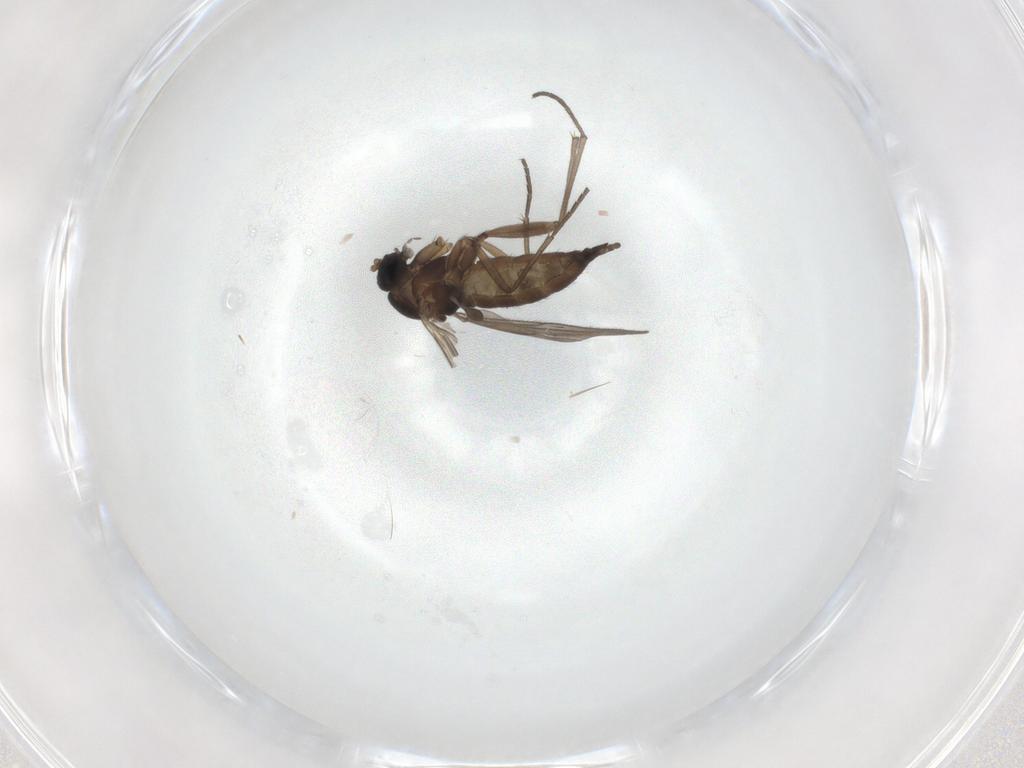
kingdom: Animalia
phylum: Arthropoda
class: Insecta
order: Diptera
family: Sciaridae
